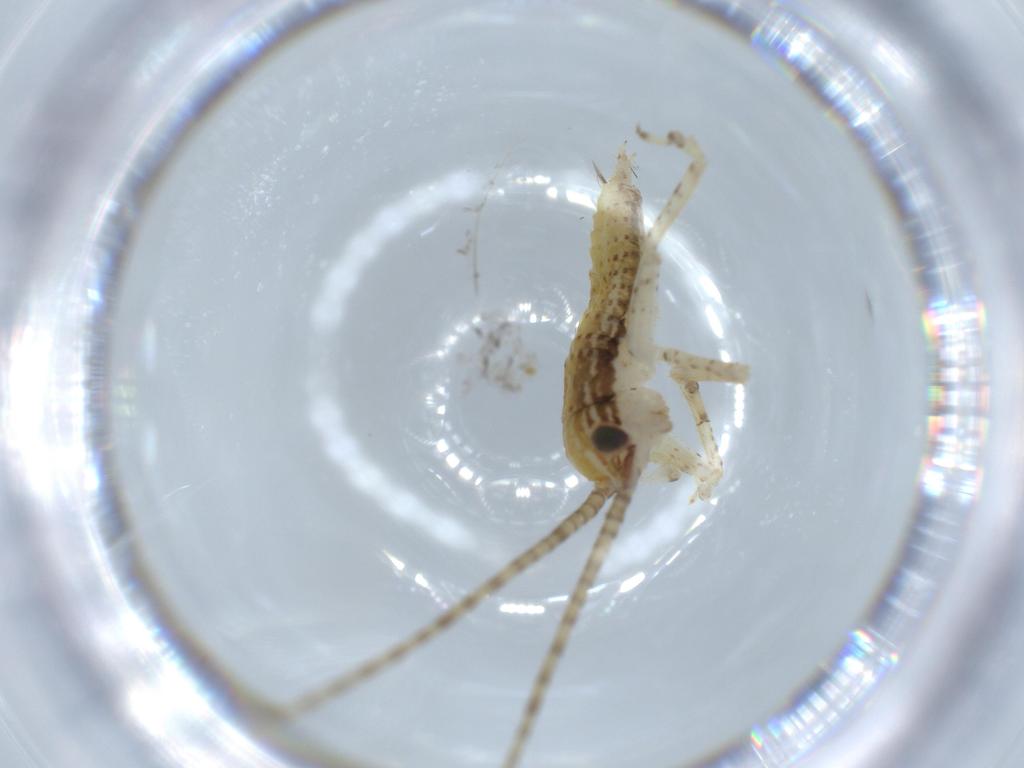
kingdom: Animalia
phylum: Arthropoda
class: Insecta
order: Orthoptera
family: Gryllidae
